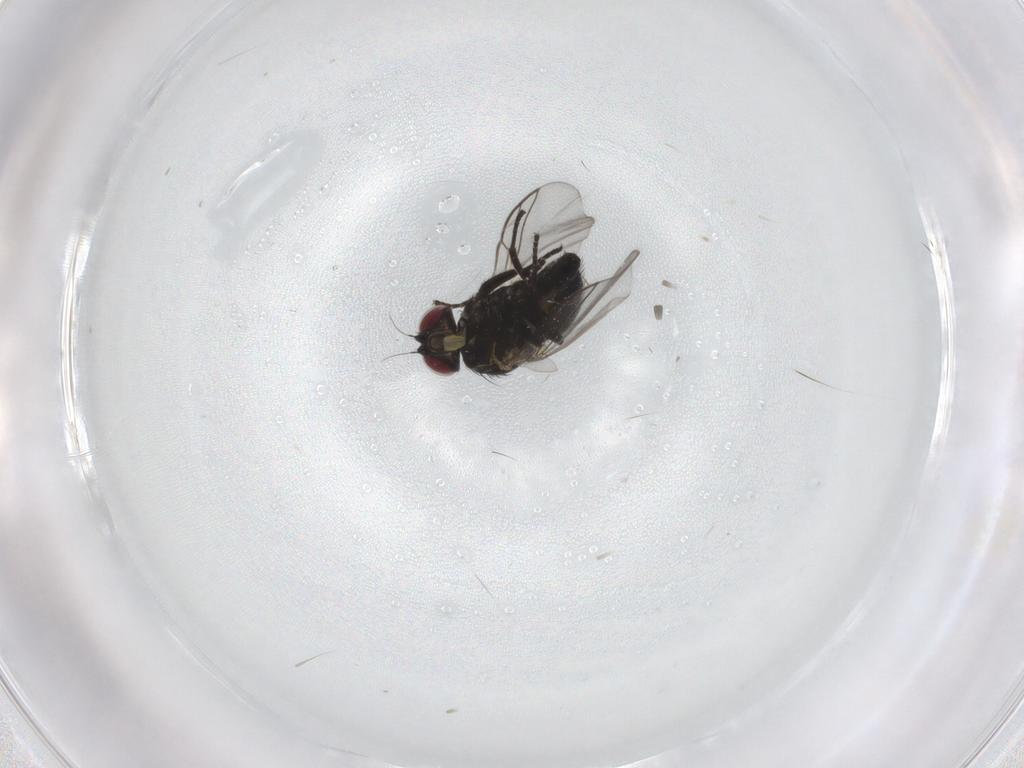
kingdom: Animalia
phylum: Arthropoda
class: Insecta
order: Diptera
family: Agromyzidae
